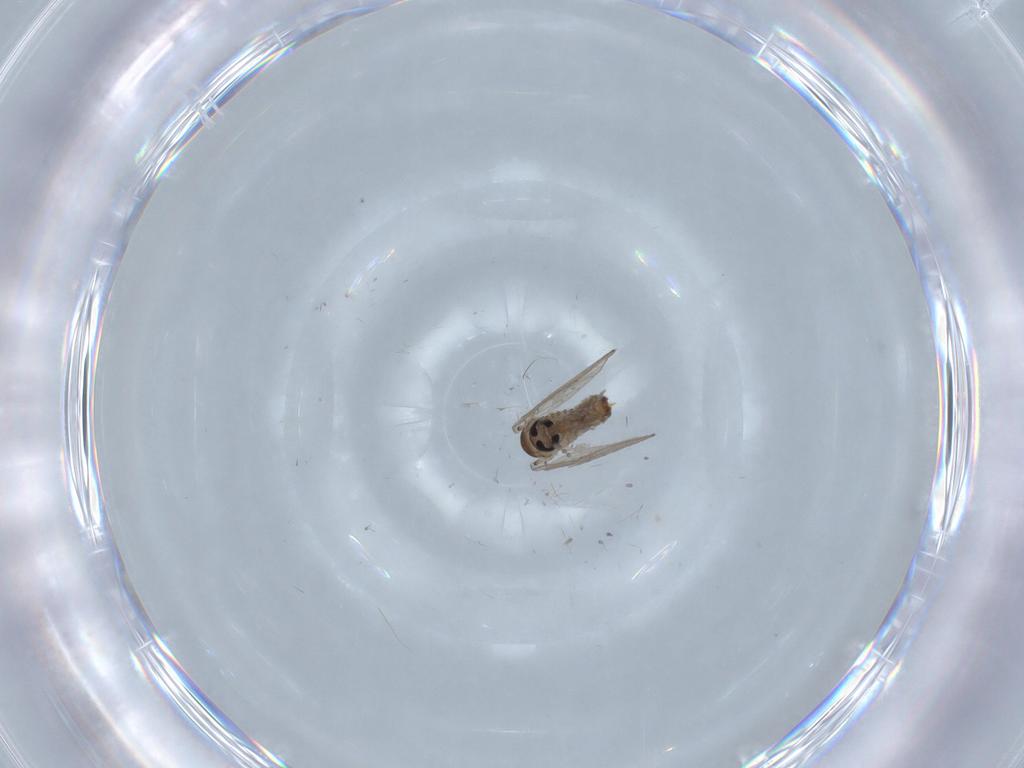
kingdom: Animalia
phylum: Arthropoda
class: Insecta
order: Diptera
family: Psychodidae
